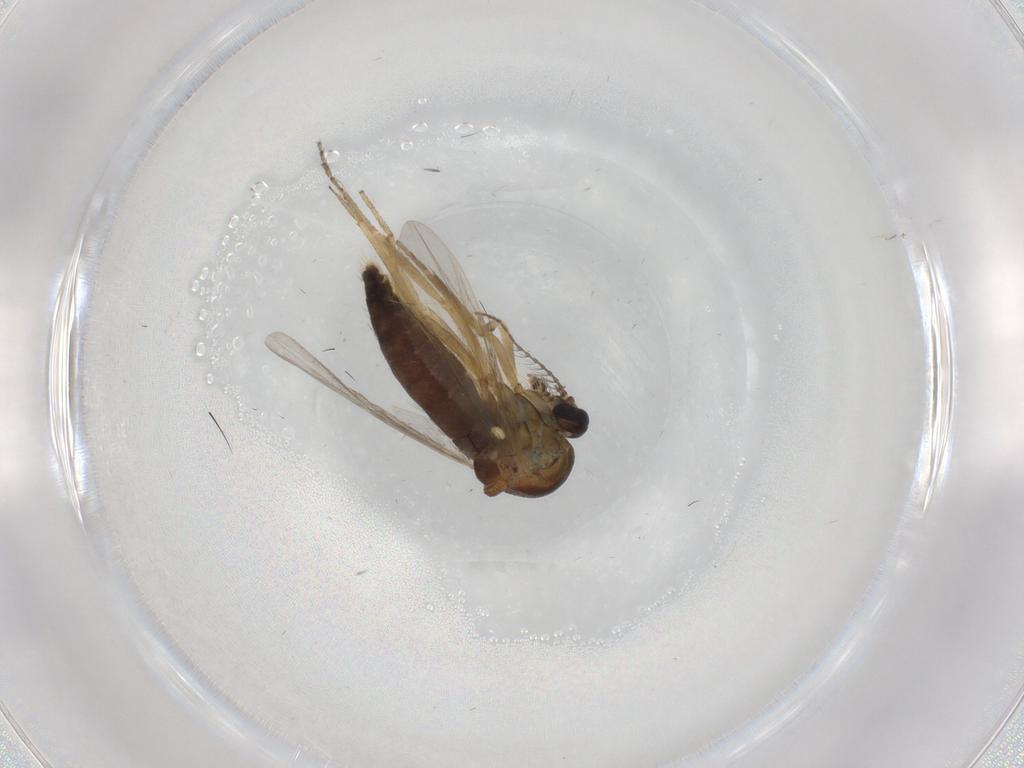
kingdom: Animalia
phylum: Arthropoda
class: Insecta
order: Diptera
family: Ceratopogonidae
